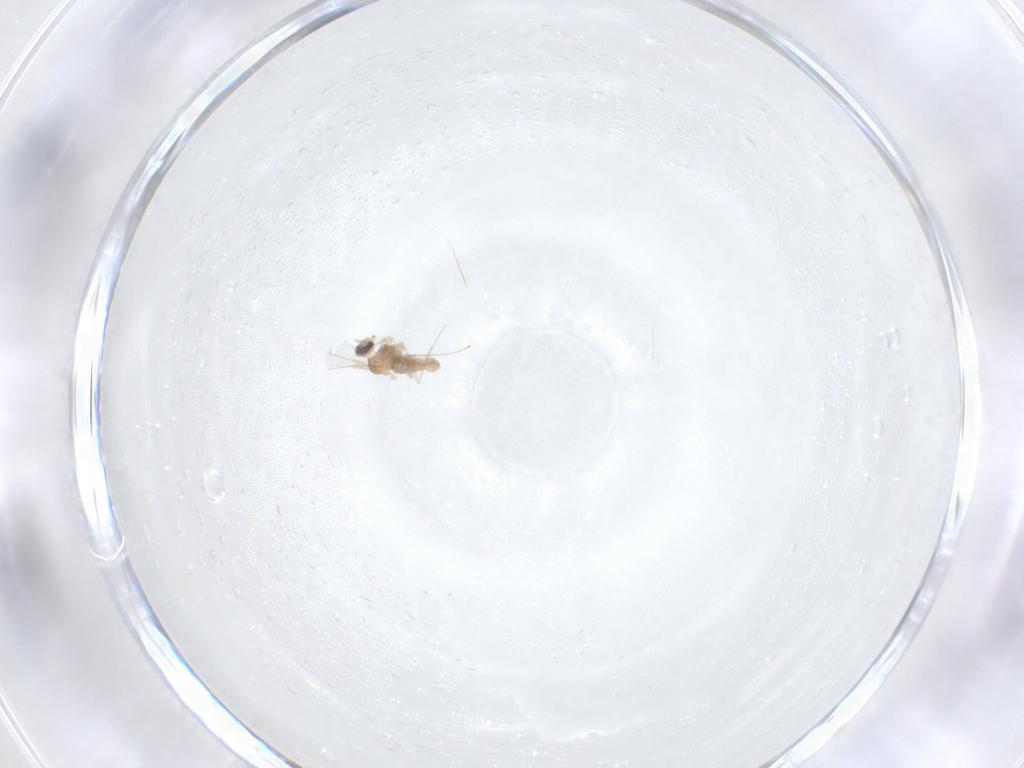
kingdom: Animalia
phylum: Arthropoda
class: Insecta
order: Diptera
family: Cecidomyiidae
